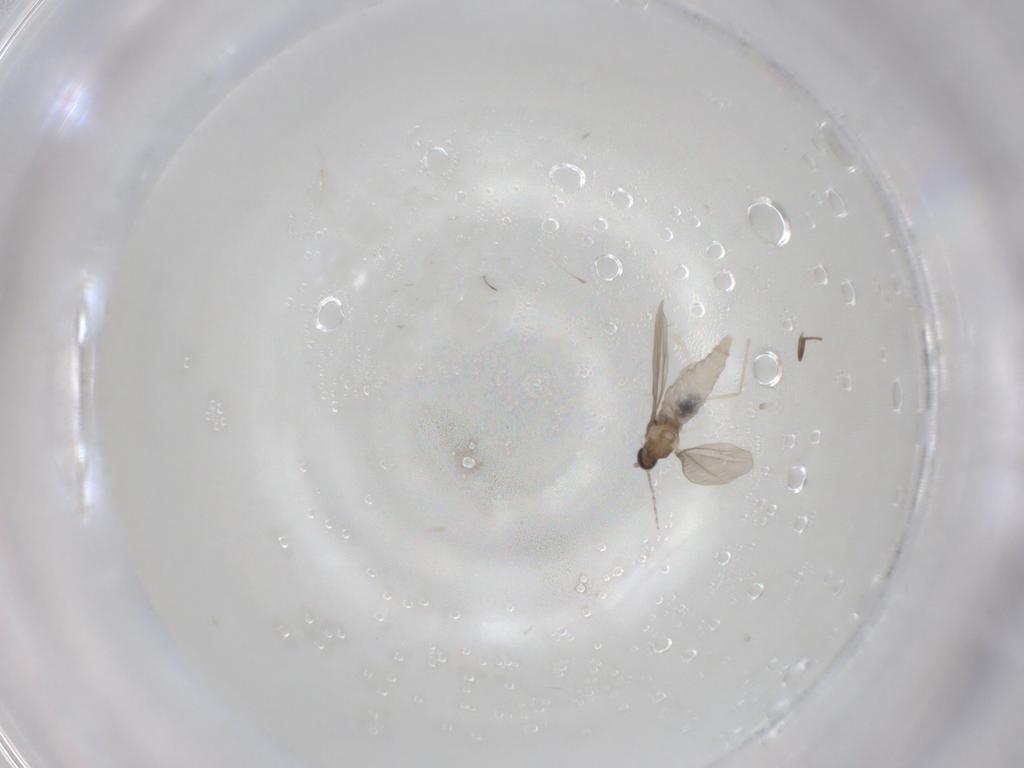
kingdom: Animalia
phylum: Arthropoda
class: Insecta
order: Diptera
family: Cecidomyiidae
